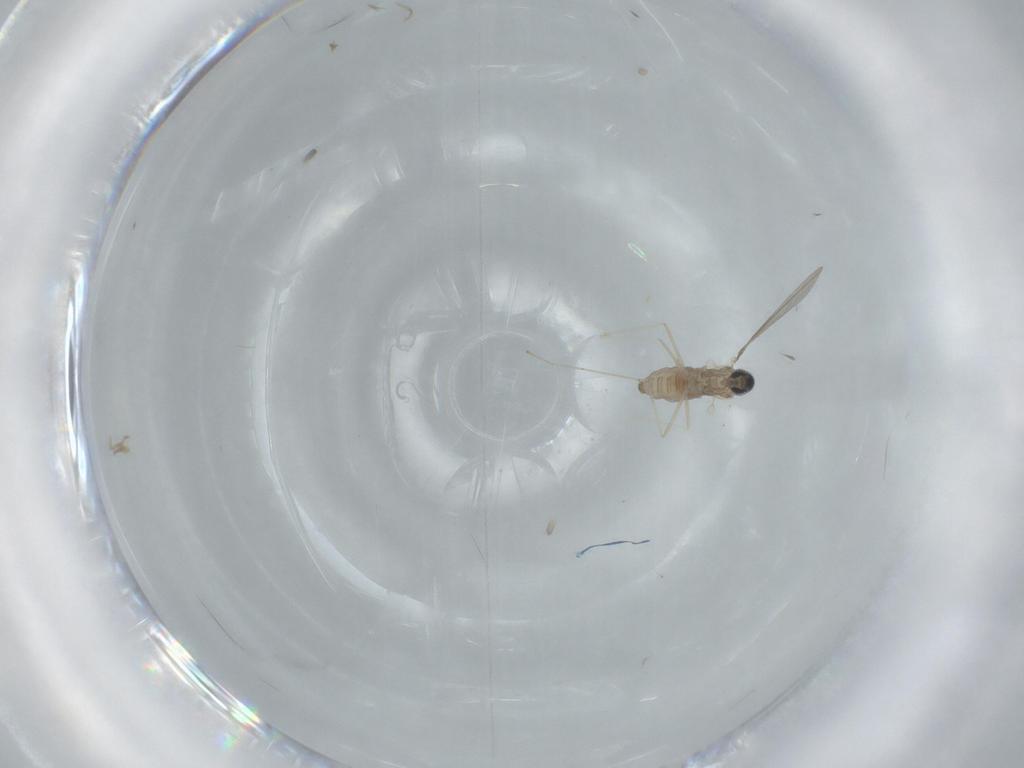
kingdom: Animalia
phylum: Arthropoda
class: Insecta
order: Diptera
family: Cecidomyiidae
